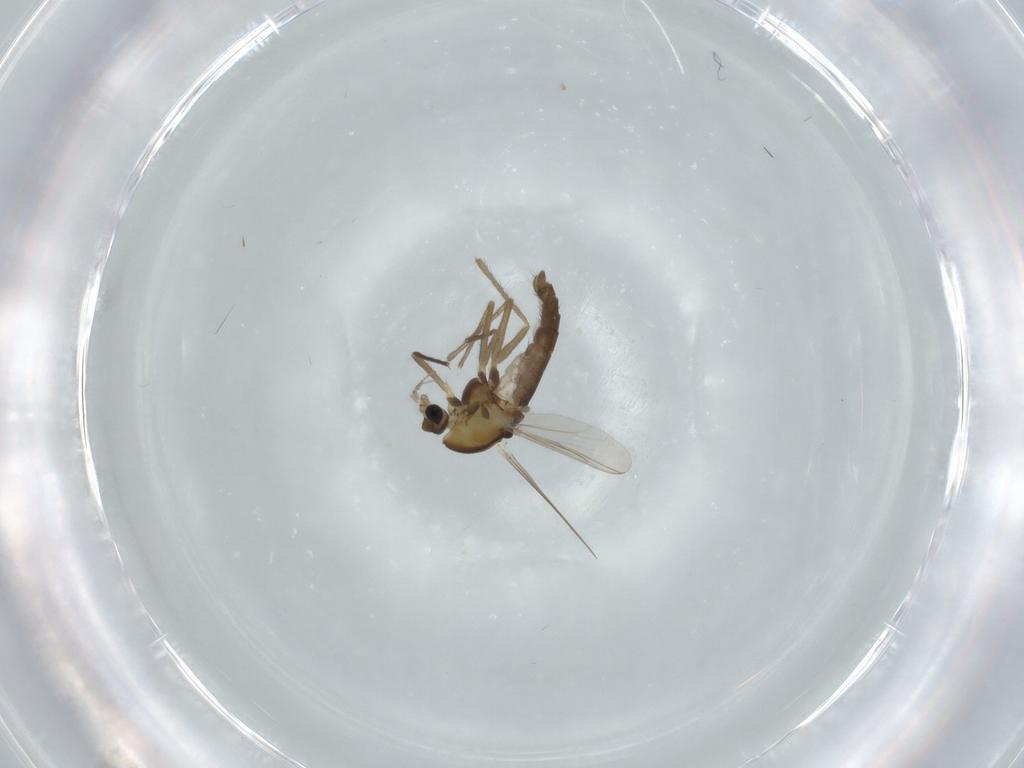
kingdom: Animalia
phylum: Arthropoda
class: Insecta
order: Diptera
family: Chironomidae
